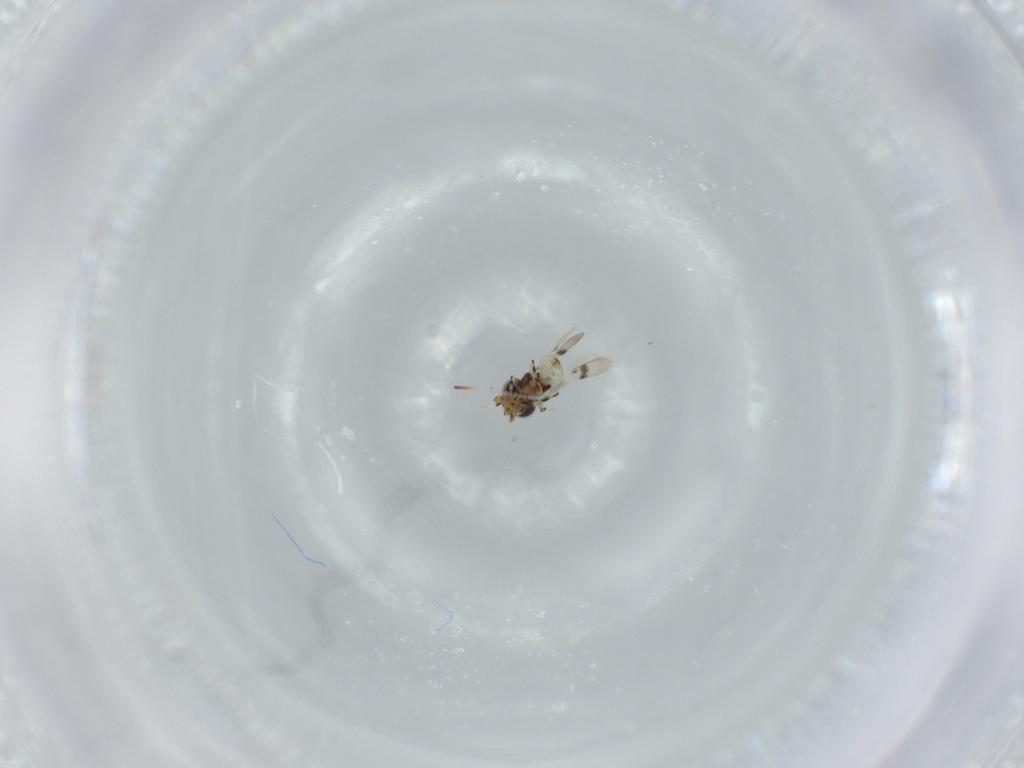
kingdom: Animalia
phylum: Arthropoda
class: Insecta
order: Hymenoptera
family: Scelionidae
